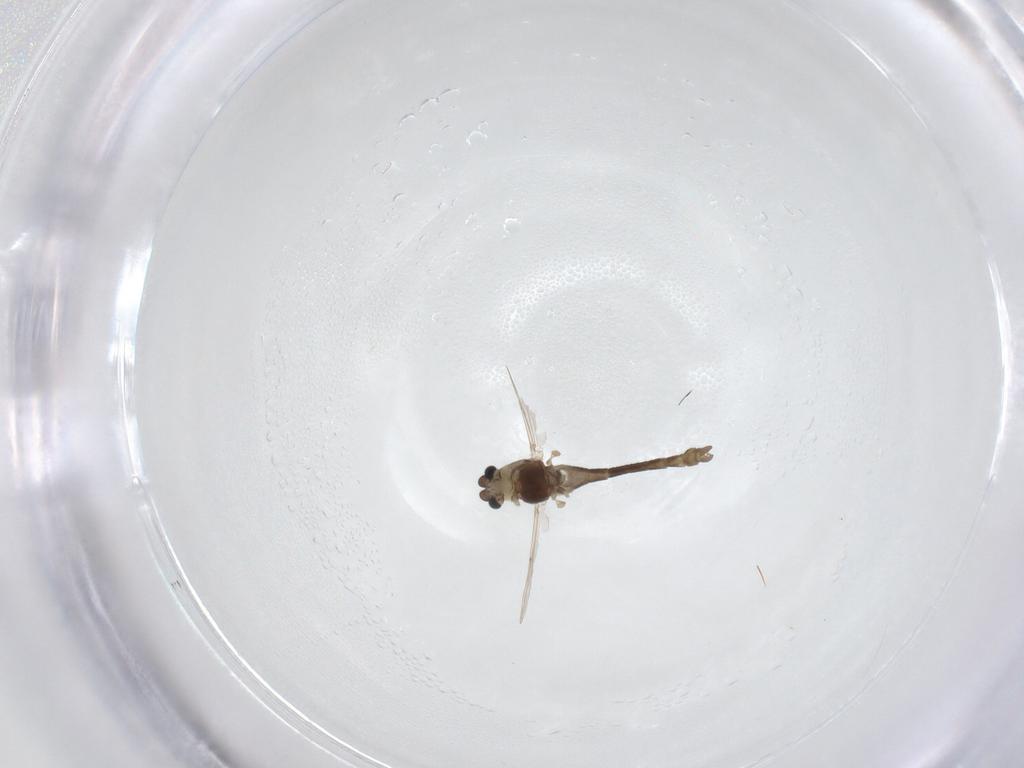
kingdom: Animalia
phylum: Arthropoda
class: Insecta
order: Diptera
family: Chironomidae
